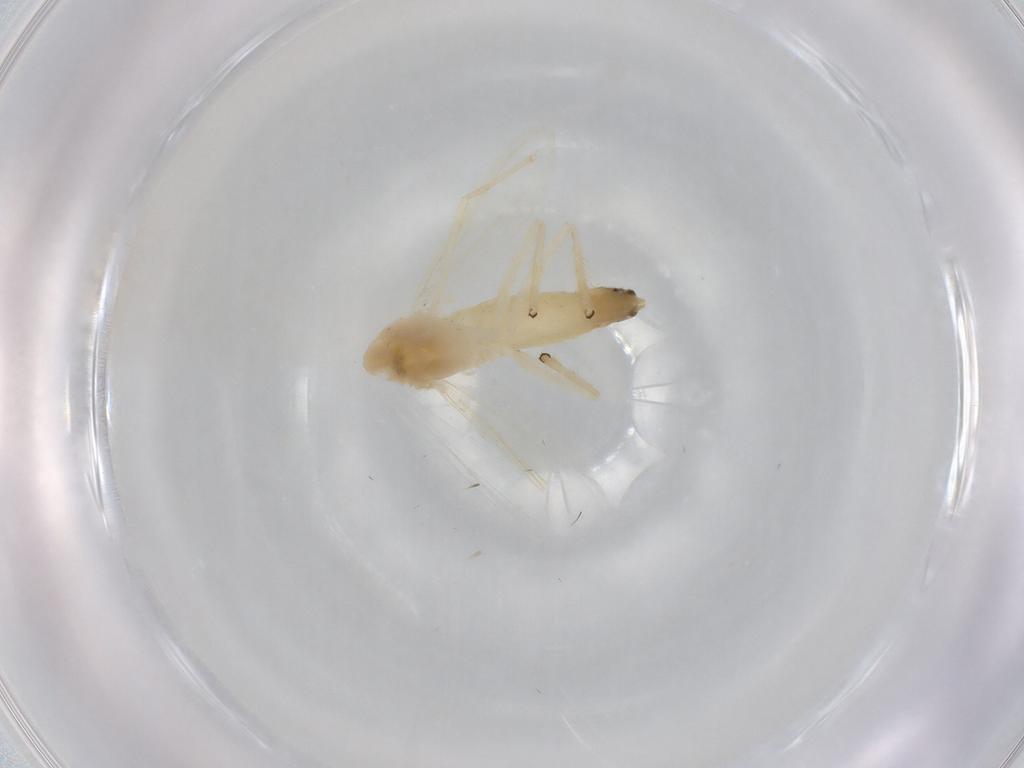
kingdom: Animalia
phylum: Arthropoda
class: Insecta
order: Diptera
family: Chironomidae
